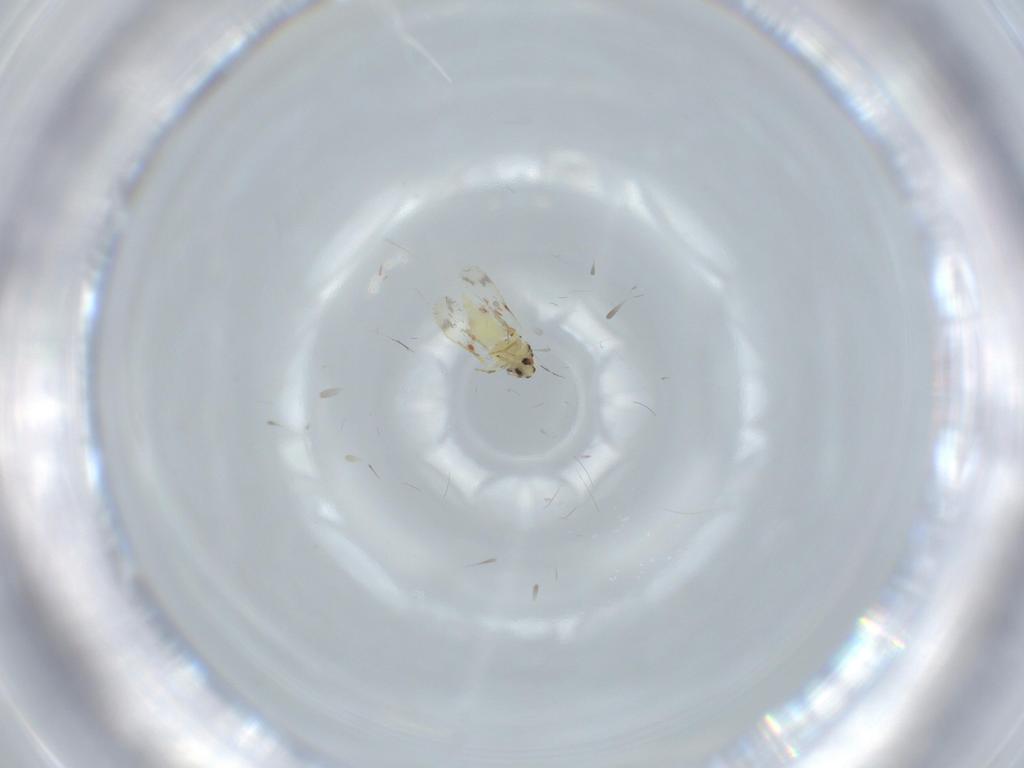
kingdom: Animalia
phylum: Arthropoda
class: Insecta
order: Hemiptera
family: Aleyrodidae
